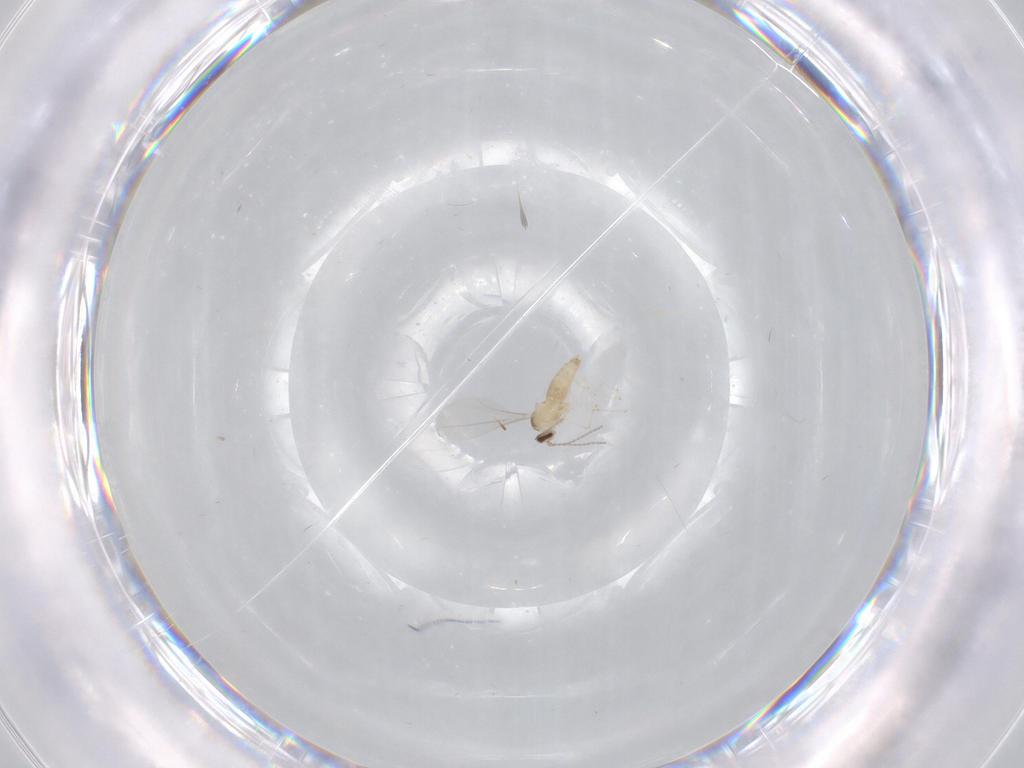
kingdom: Animalia
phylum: Arthropoda
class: Insecta
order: Diptera
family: Cecidomyiidae
